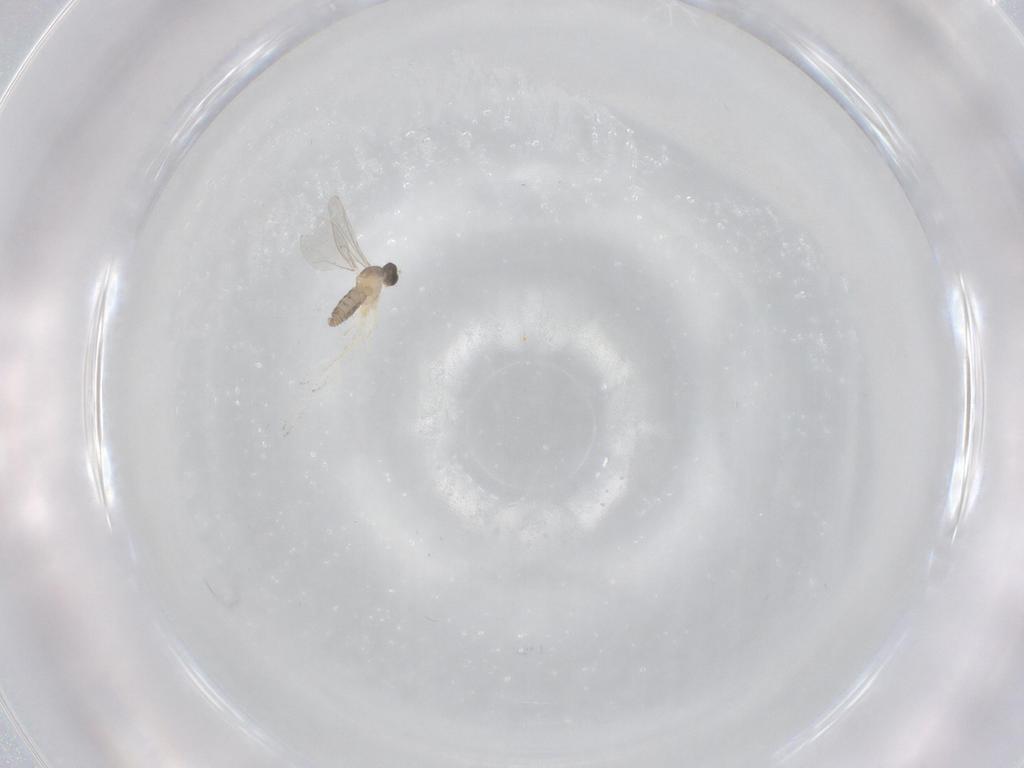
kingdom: Animalia
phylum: Arthropoda
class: Insecta
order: Diptera
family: Cecidomyiidae
